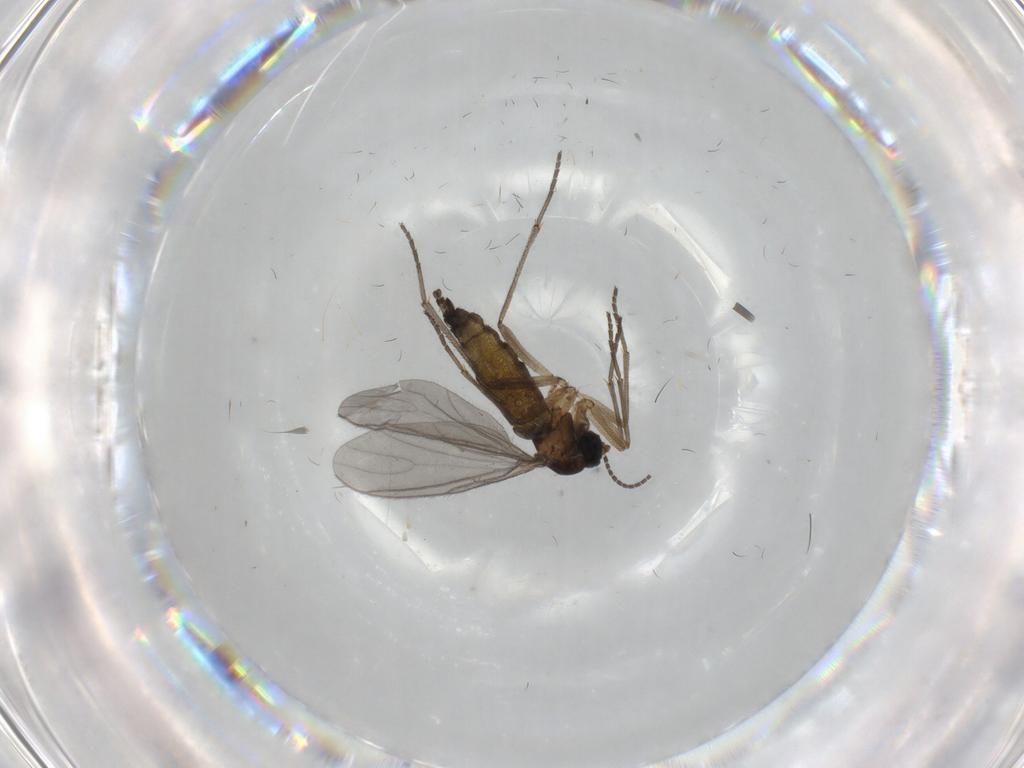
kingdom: Animalia
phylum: Arthropoda
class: Insecta
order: Diptera
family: Sciaridae
